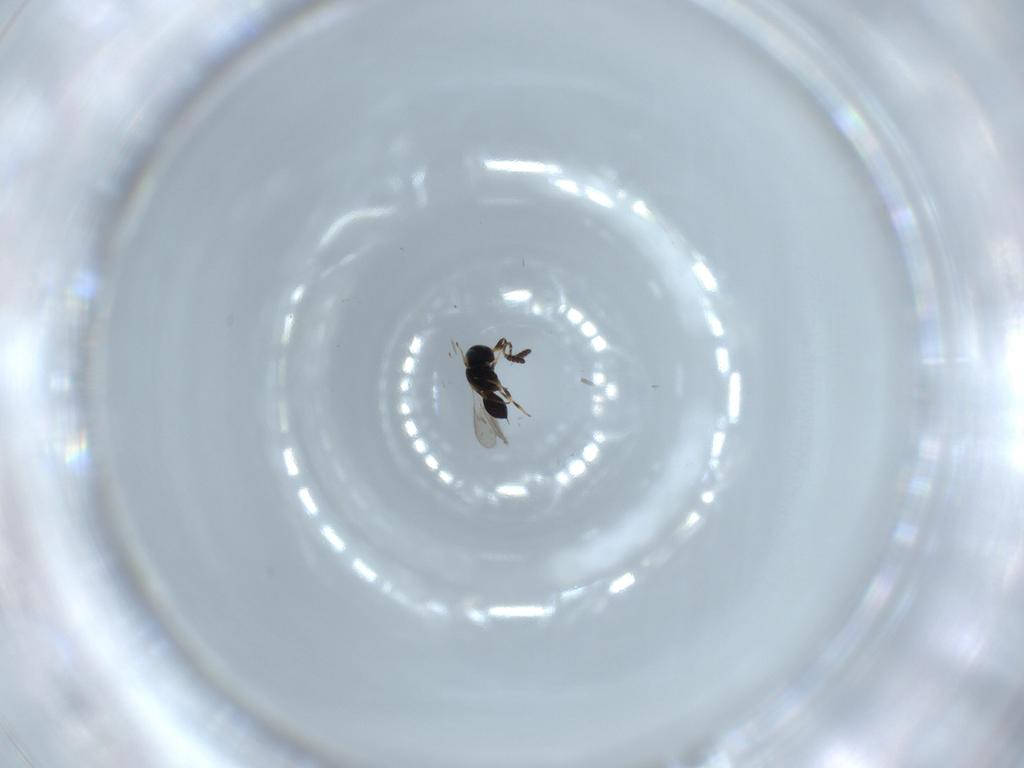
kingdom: Animalia
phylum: Arthropoda
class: Insecta
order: Hymenoptera
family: Scelionidae
